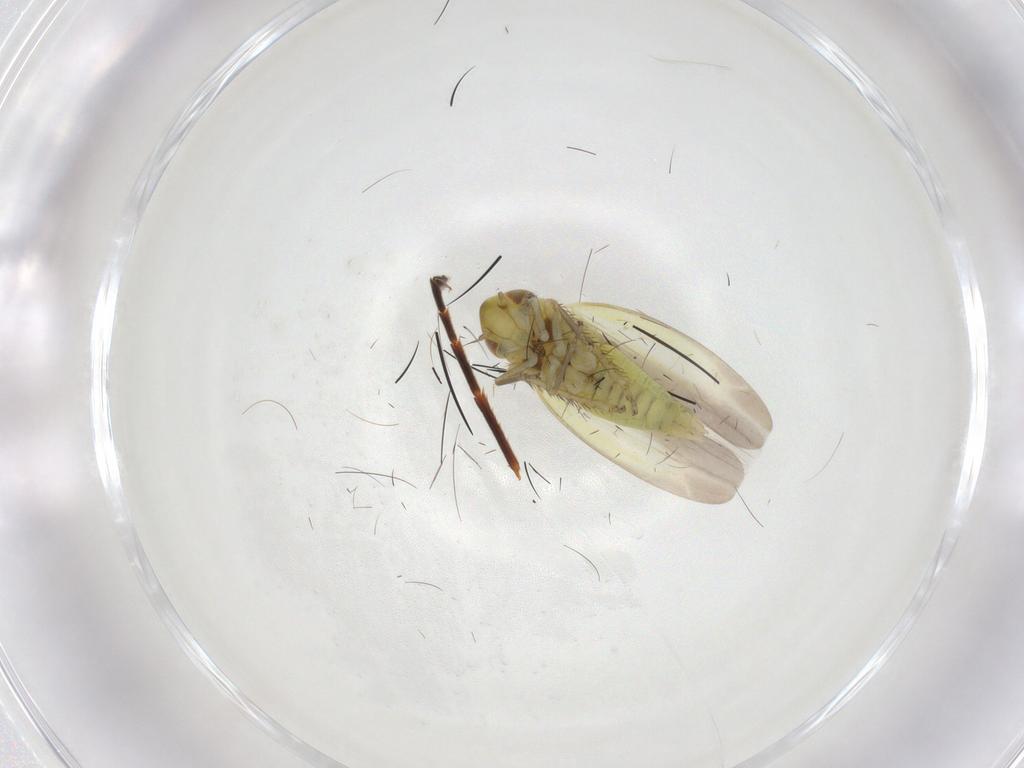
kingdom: Animalia
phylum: Arthropoda
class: Insecta
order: Hemiptera
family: Cicadellidae
